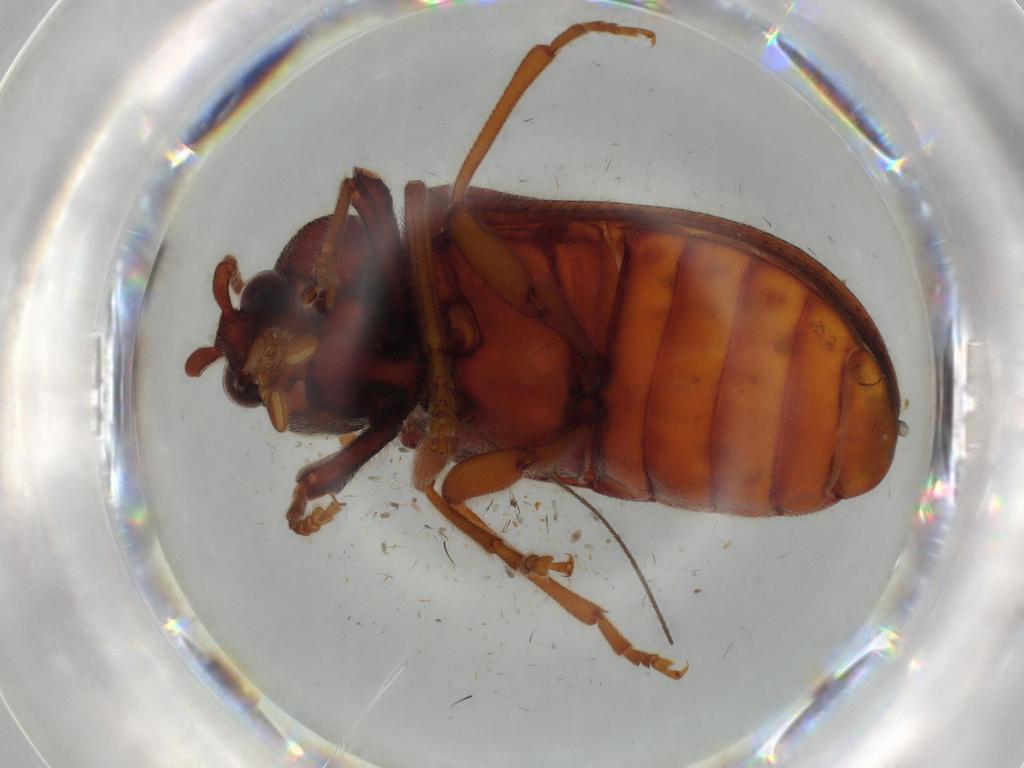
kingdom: Animalia
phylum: Arthropoda
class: Insecta
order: Coleoptera
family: Cerophytidae
